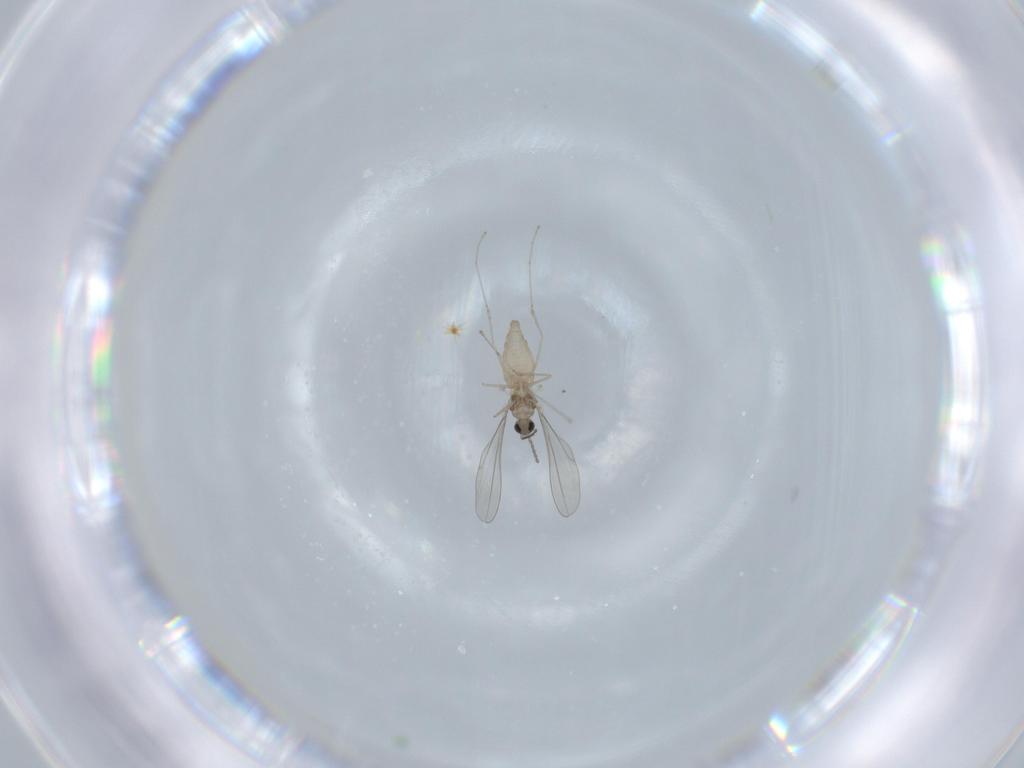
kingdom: Animalia
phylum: Arthropoda
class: Insecta
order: Diptera
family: Cecidomyiidae
